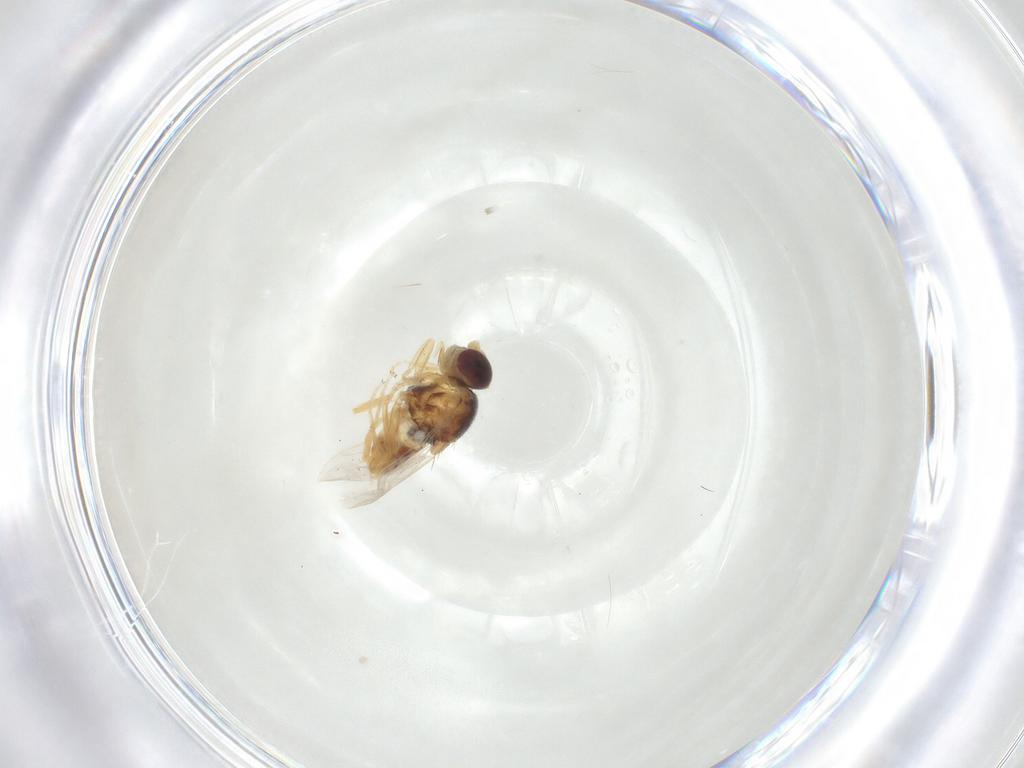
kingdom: Animalia
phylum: Arthropoda
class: Insecta
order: Diptera
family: Chloropidae
